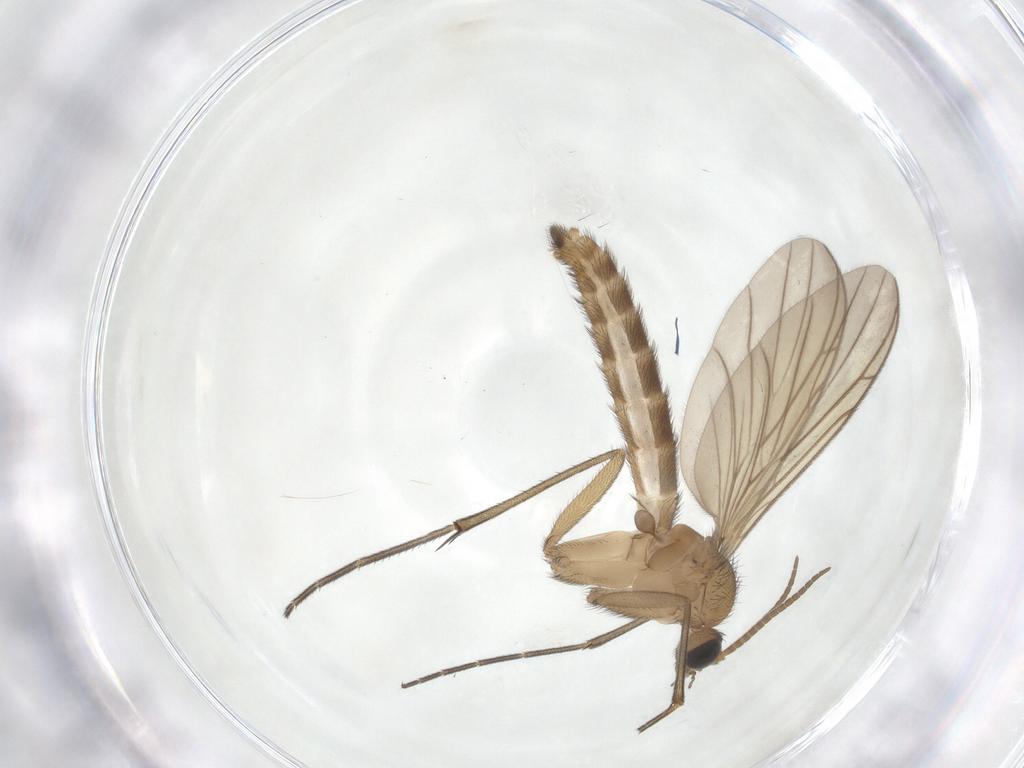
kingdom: Animalia
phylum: Arthropoda
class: Insecta
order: Diptera
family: Keroplatidae
